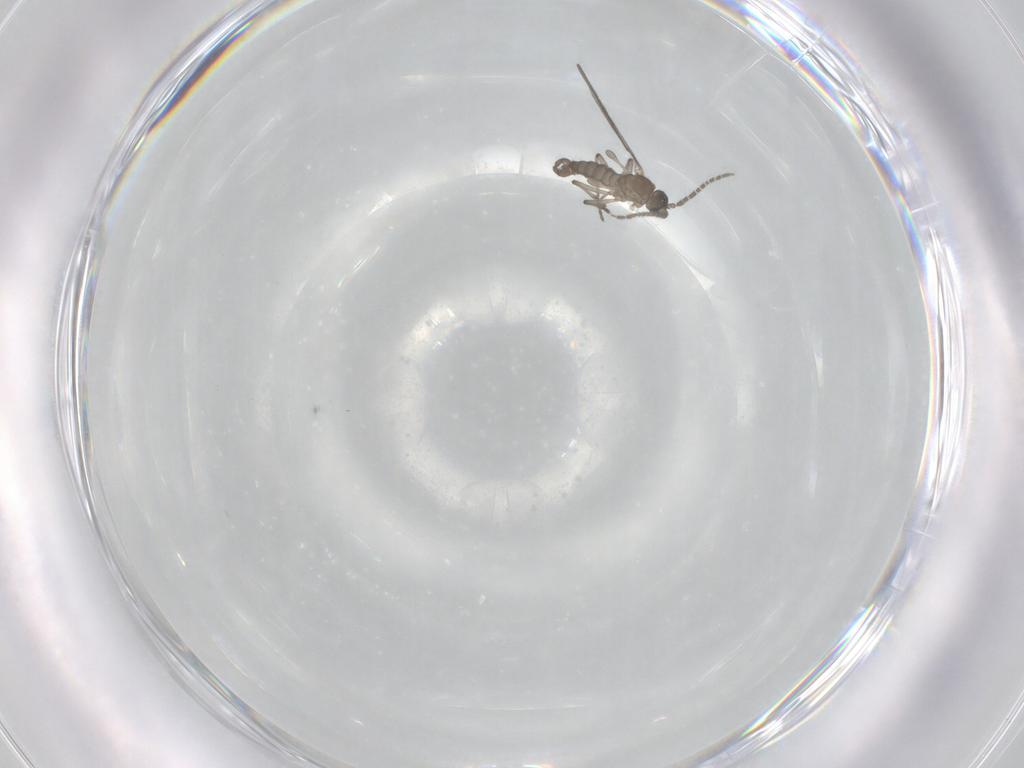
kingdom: Animalia
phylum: Arthropoda
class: Insecta
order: Diptera
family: Sciaridae
